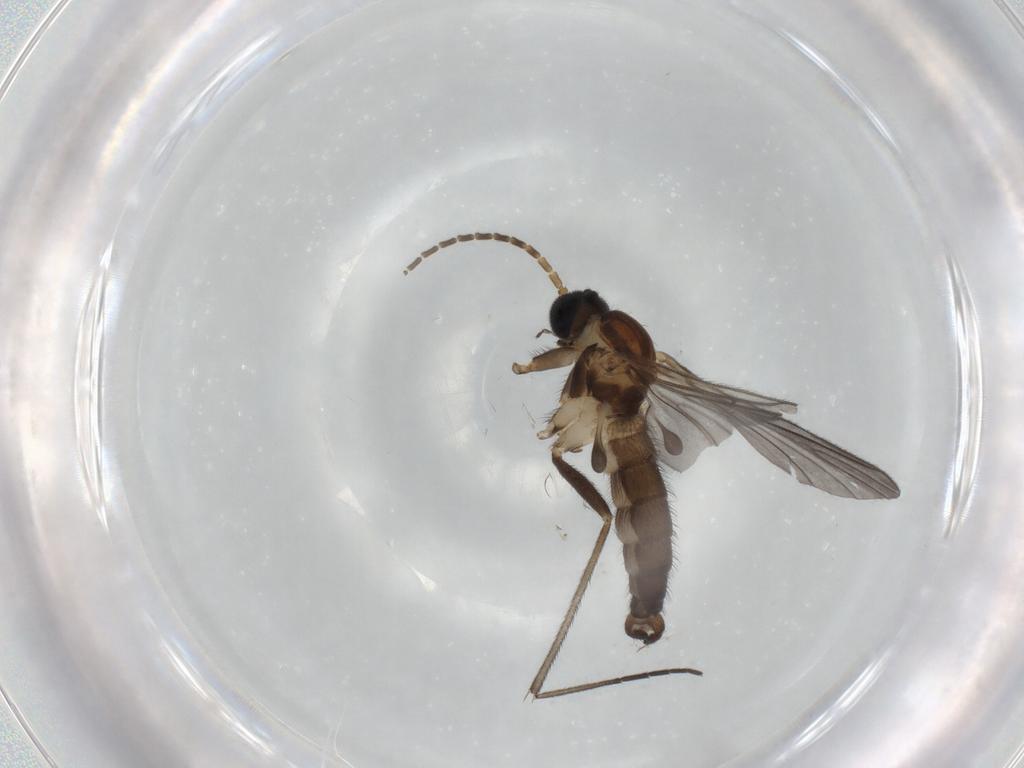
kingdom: Animalia
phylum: Arthropoda
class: Insecta
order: Diptera
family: Sciaridae
